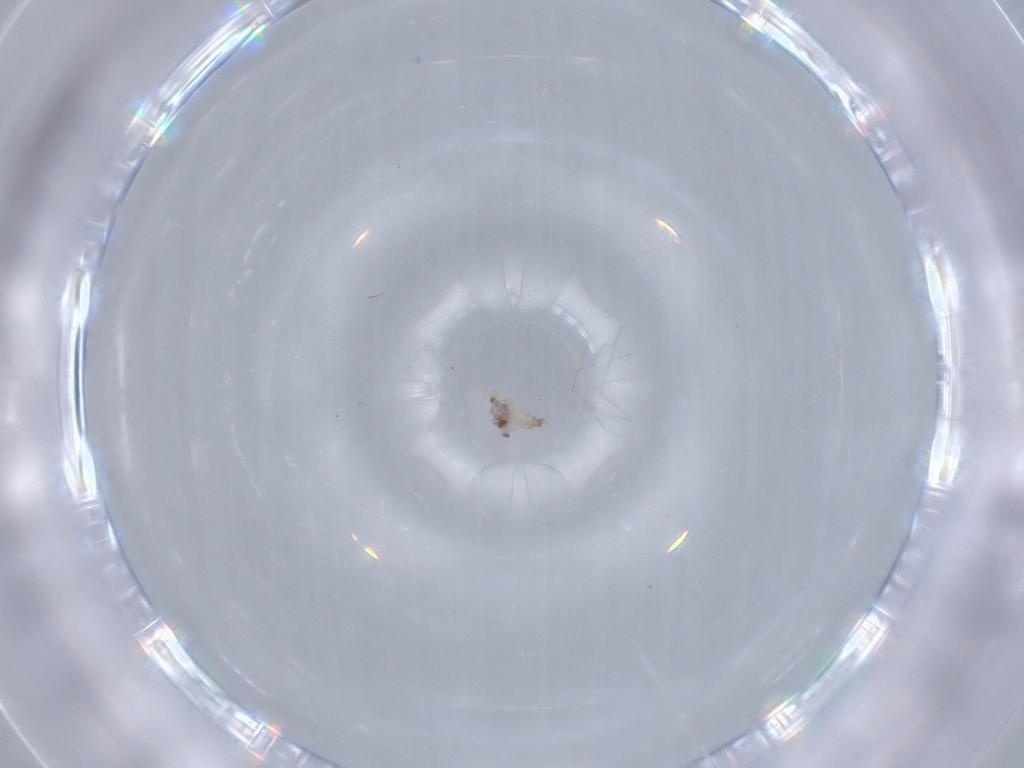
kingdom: Animalia
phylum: Arthropoda
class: Insecta
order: Diptera
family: Cecidomyiidae
